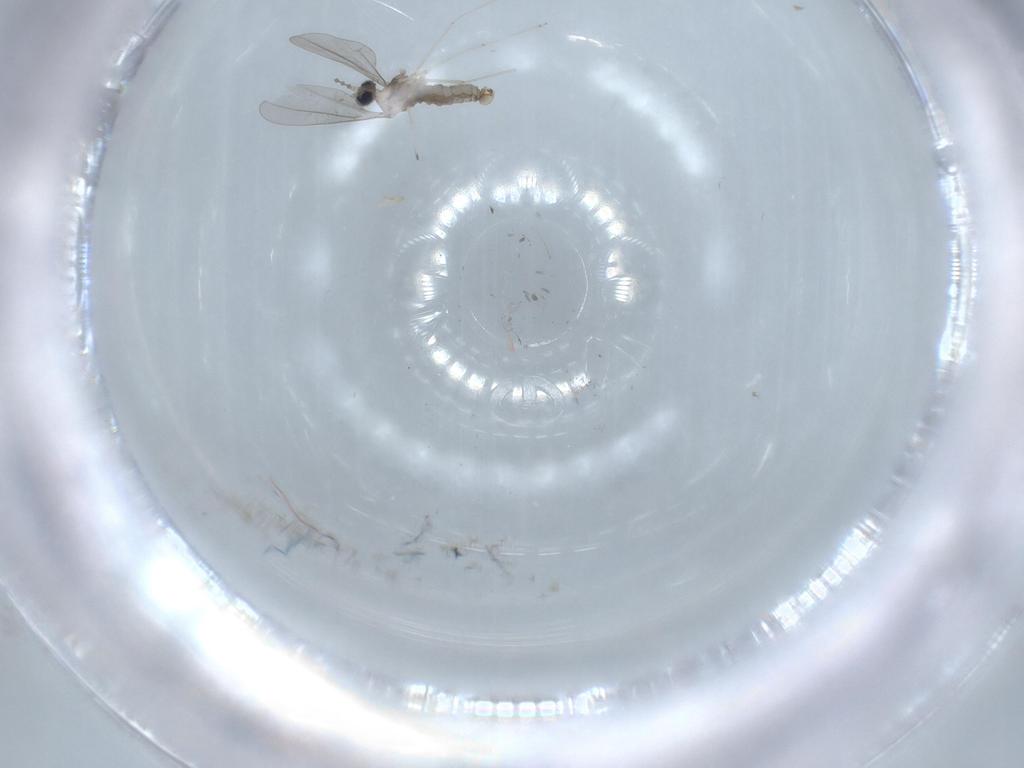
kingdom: Animalia
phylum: Arthropoda
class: Insecta
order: Diptera
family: Cecidomyiidae
